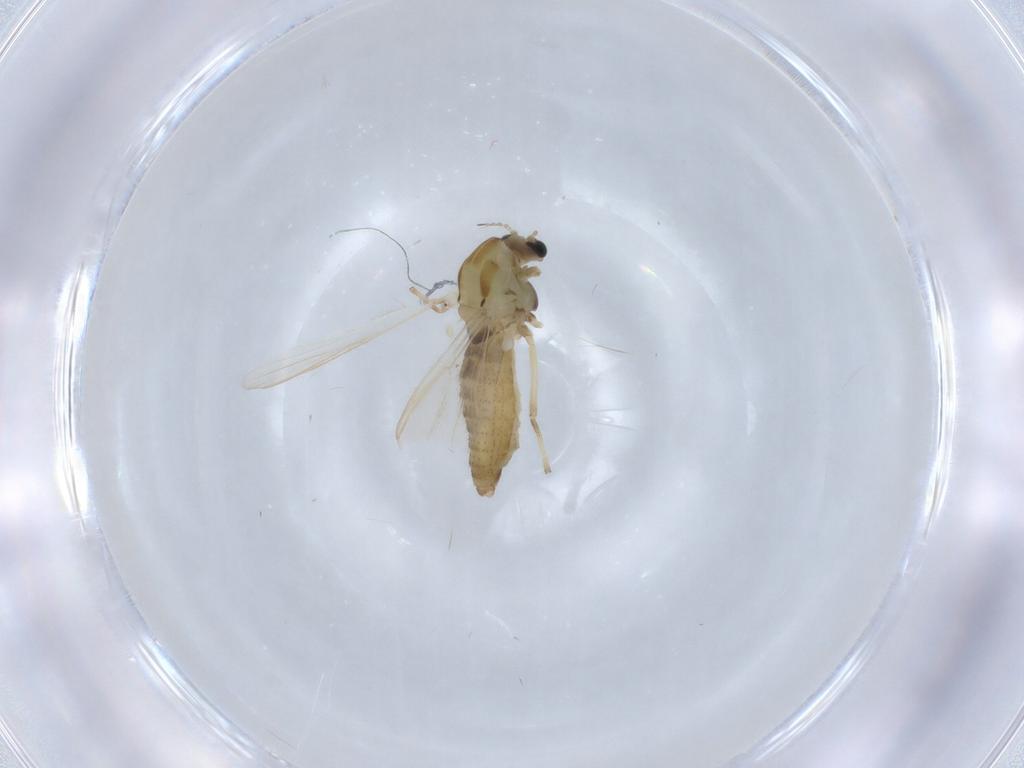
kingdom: Animalia
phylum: Arthropoda
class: Insecta
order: Diptera
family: Chironomidae
